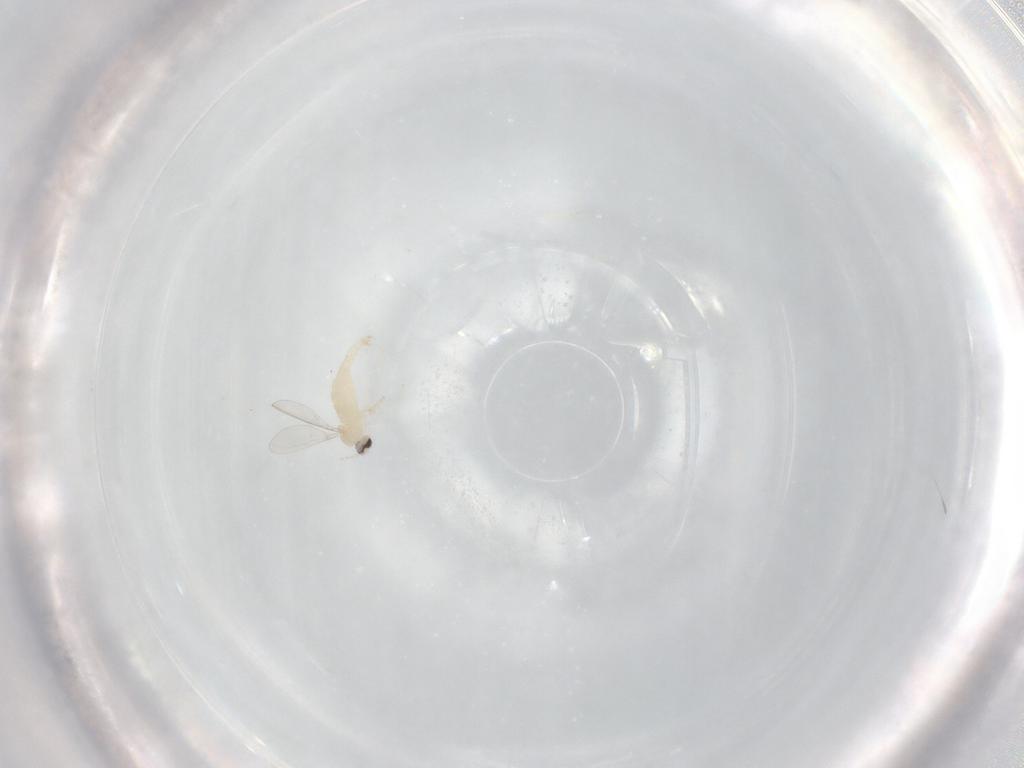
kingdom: Animalia
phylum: Arthropoda
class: Insecta
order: Diptera
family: Cecidomyiidae
